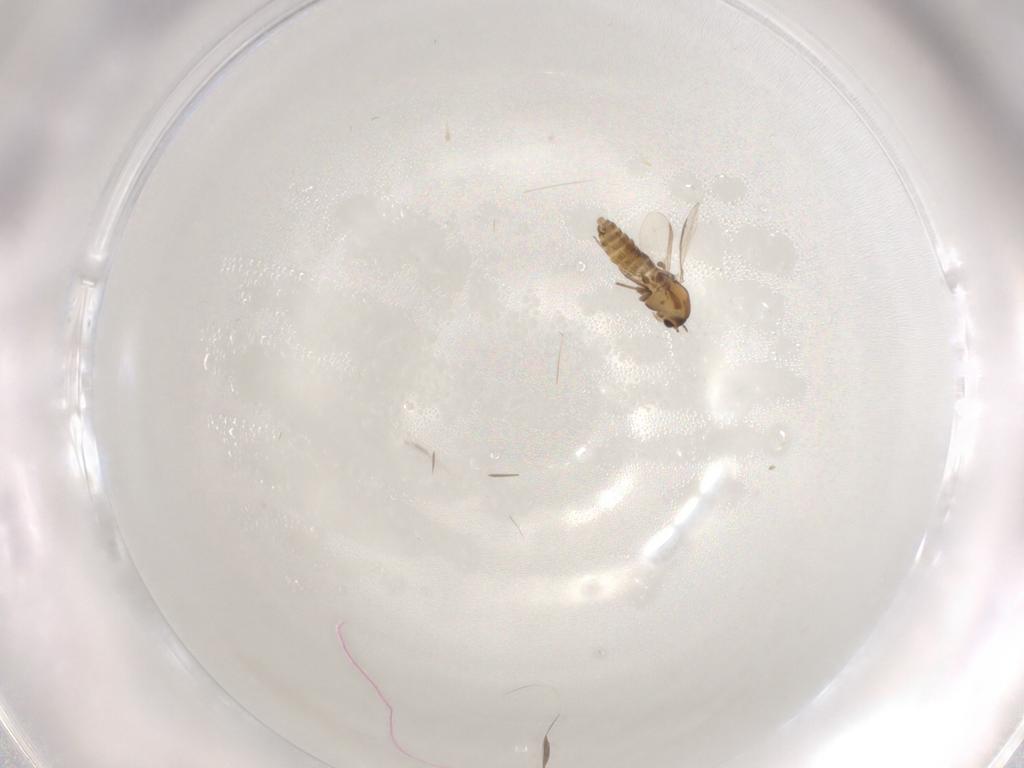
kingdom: Animalia
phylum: Arthropoda
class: Insecta
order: Diptera
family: Chironomidae
